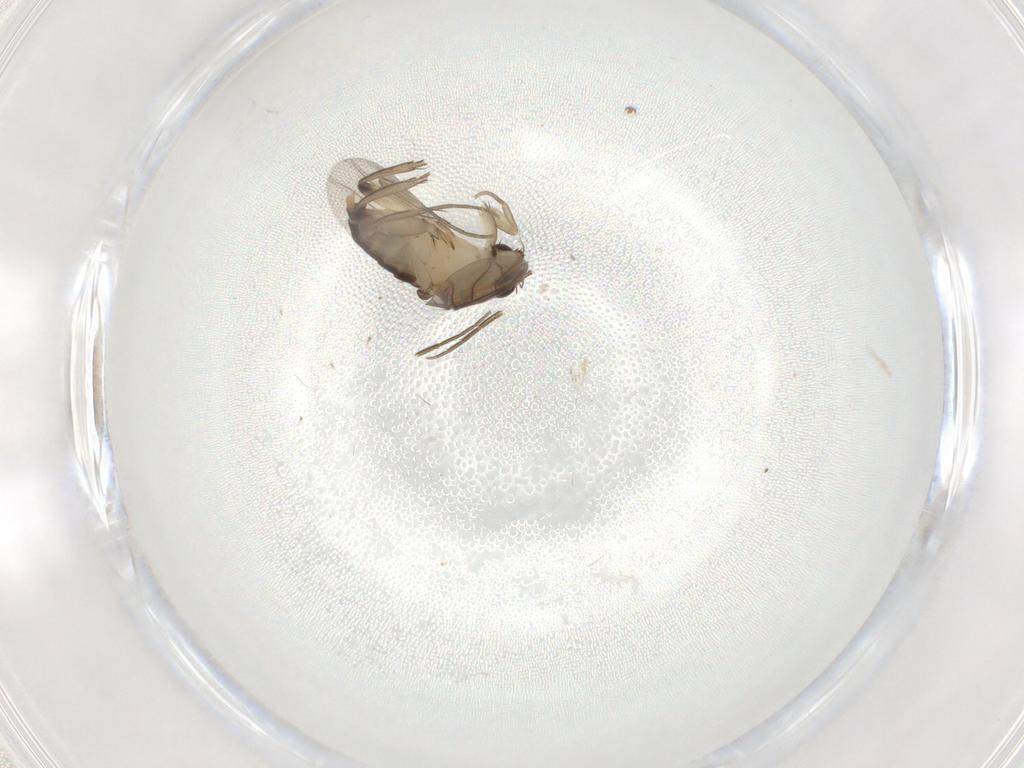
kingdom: Animalia
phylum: Arthropoda
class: Insecta
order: Diptera
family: Phoridae
